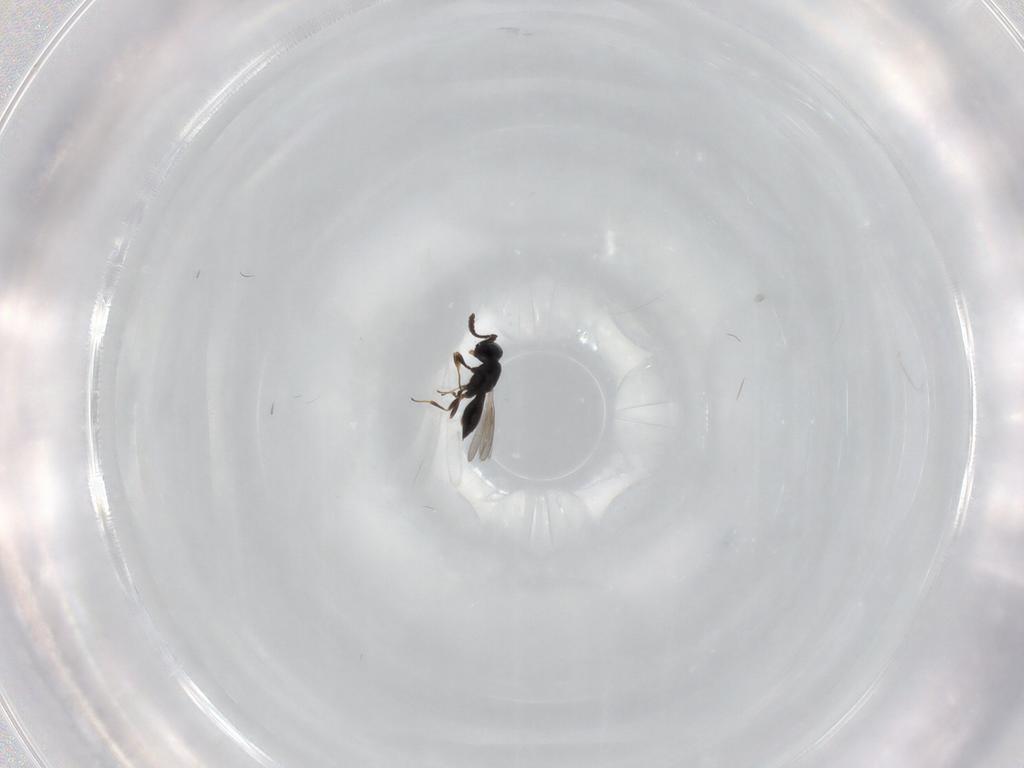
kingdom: Animalia
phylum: Arthropoda
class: Insecta
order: Hymenoptera
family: Scelionidae
